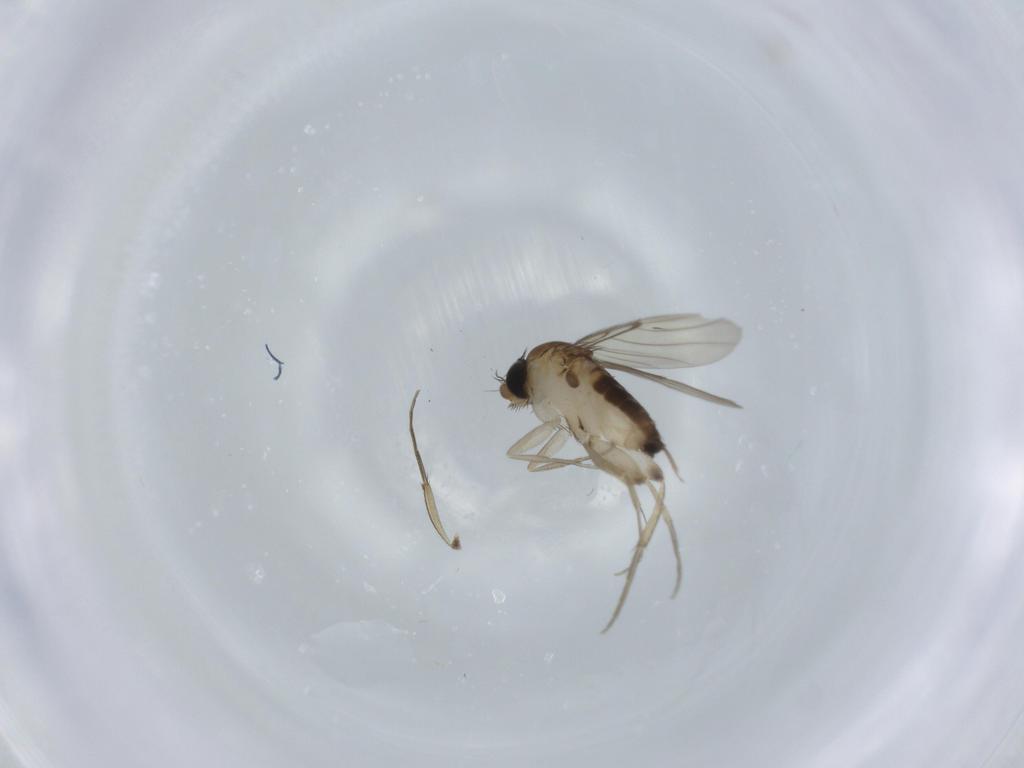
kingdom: Animalia
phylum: Arthropoda
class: Insecta
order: Diptera
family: Phoridae
